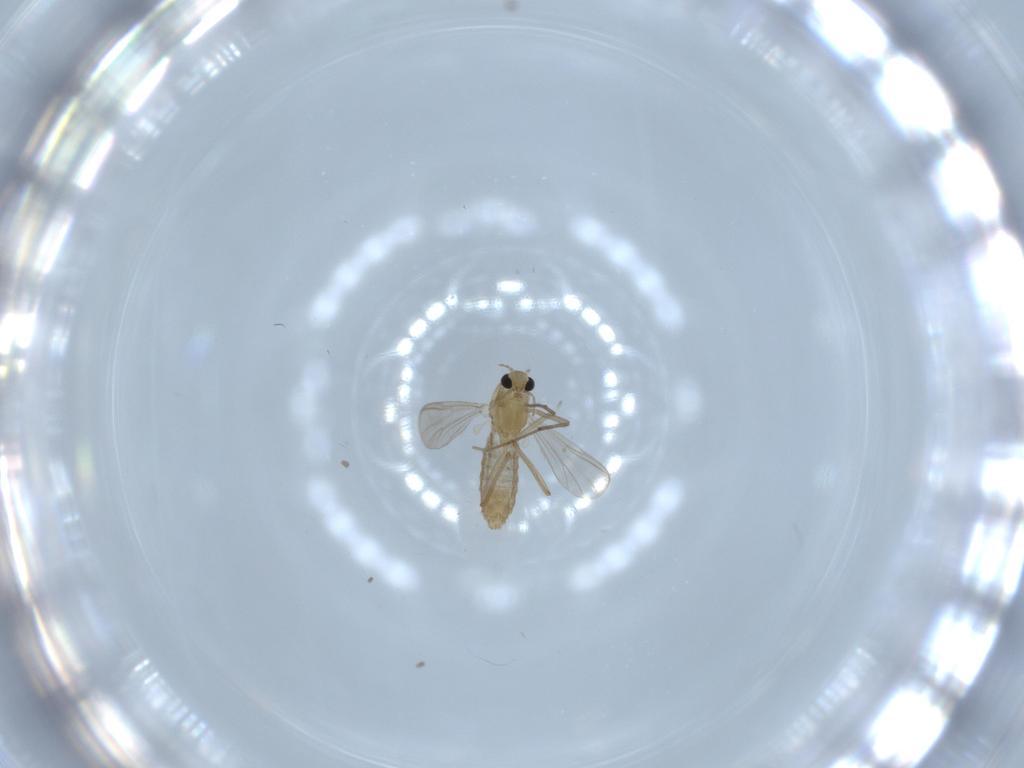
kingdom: Animalia
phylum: Arthropoda
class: Insecta
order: Diptera
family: Chironomidae
